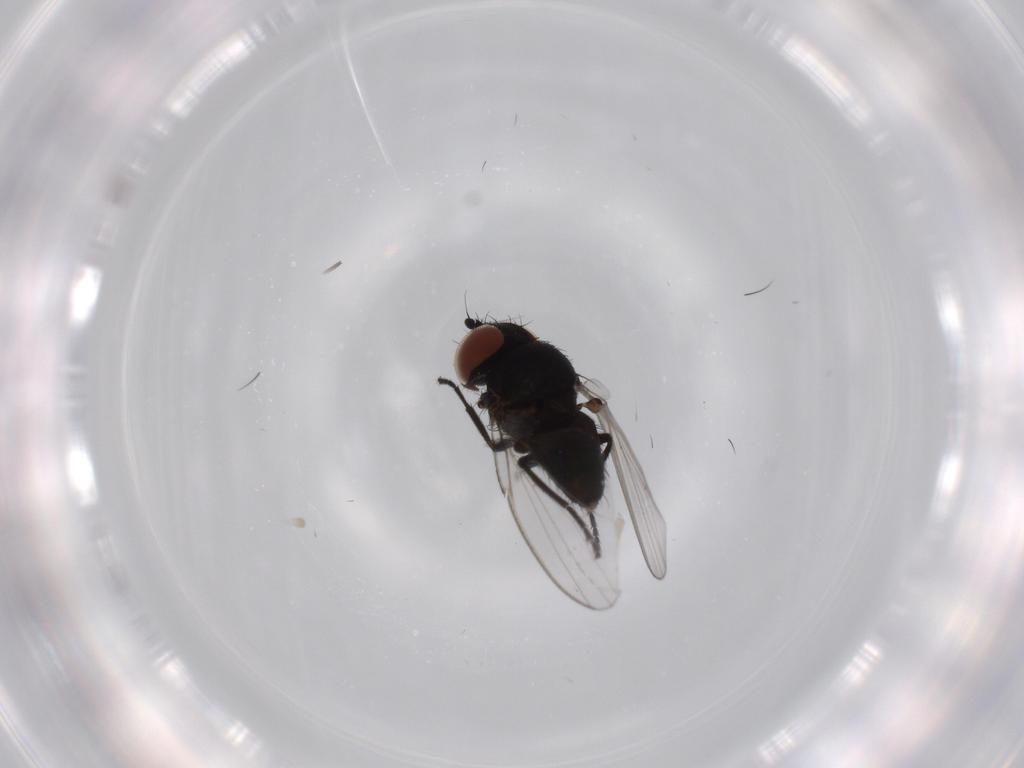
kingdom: Animalia
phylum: Arthropoda
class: Insecta
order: Diptera
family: Milichiidae
